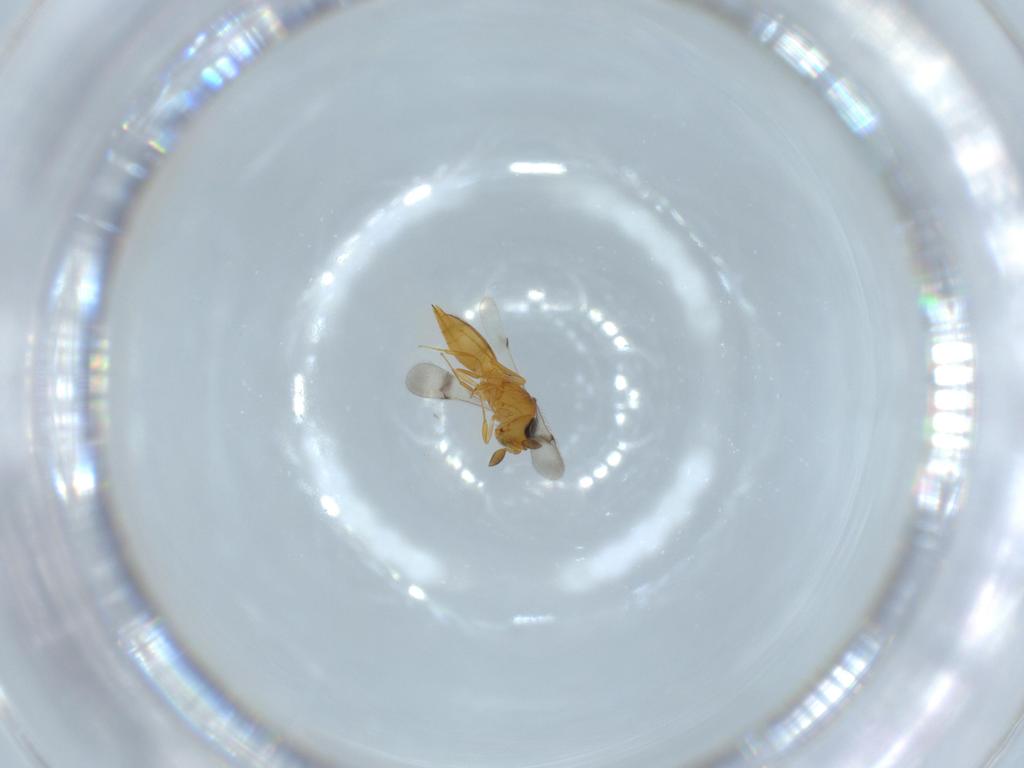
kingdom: Animalia
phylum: Arthropoda
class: Insecta
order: Hymenoptera
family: Scelionidae
